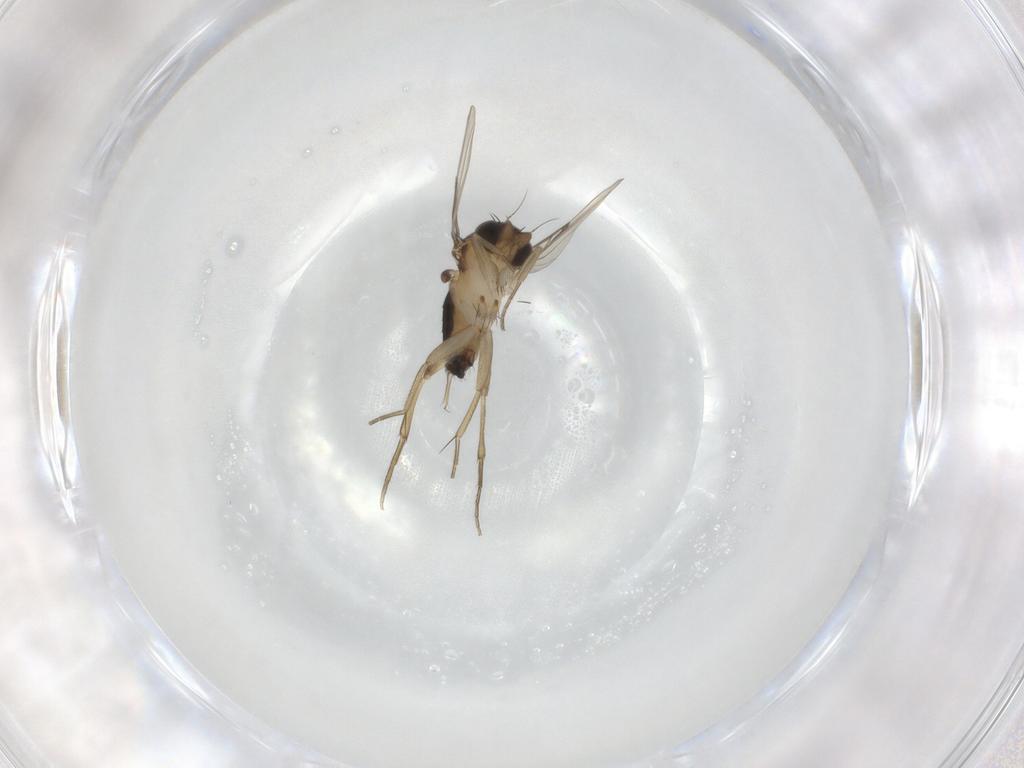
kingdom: Animalia
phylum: Arthropoda
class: Insecta
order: Diptera
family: Phoridae
